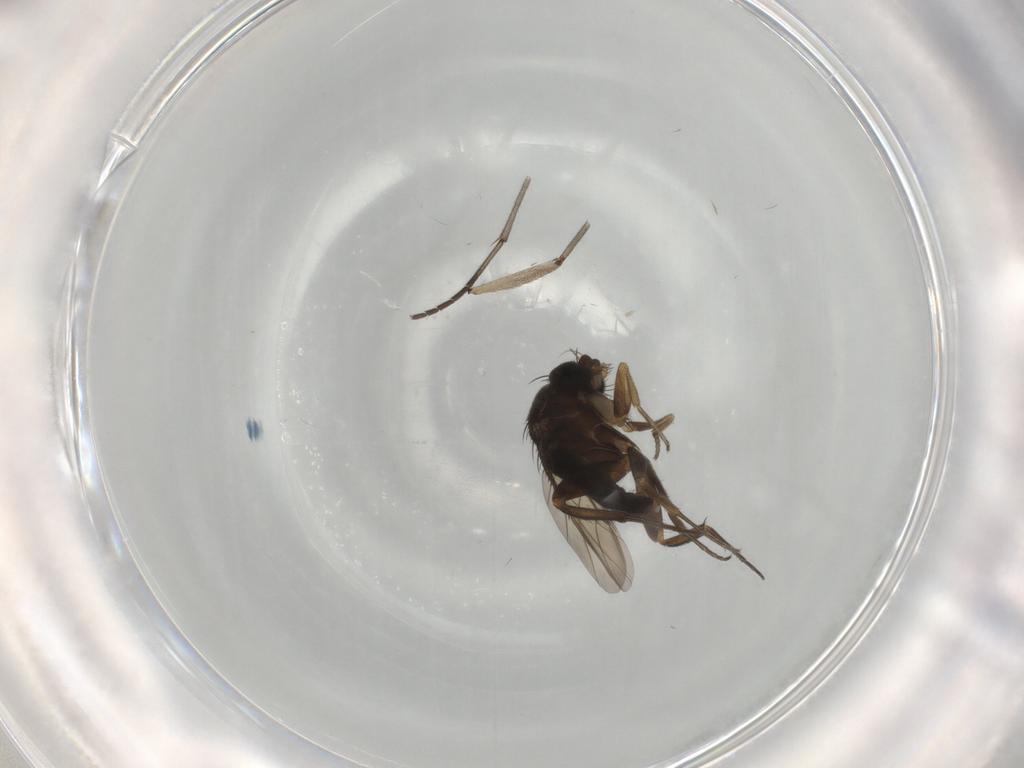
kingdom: Animalia
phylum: Arthropoda
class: Insecta
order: Diptera
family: Phoridae
